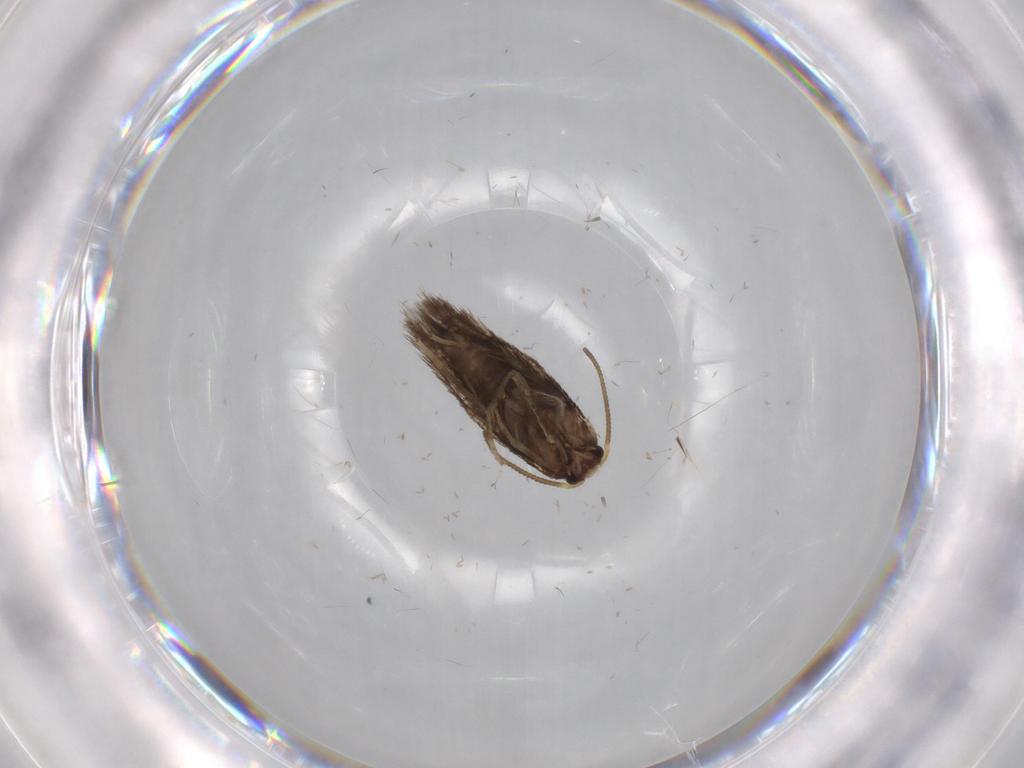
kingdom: Animalia
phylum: Arthropoda
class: Insecta
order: Lepidoptera
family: Nepticulidae
